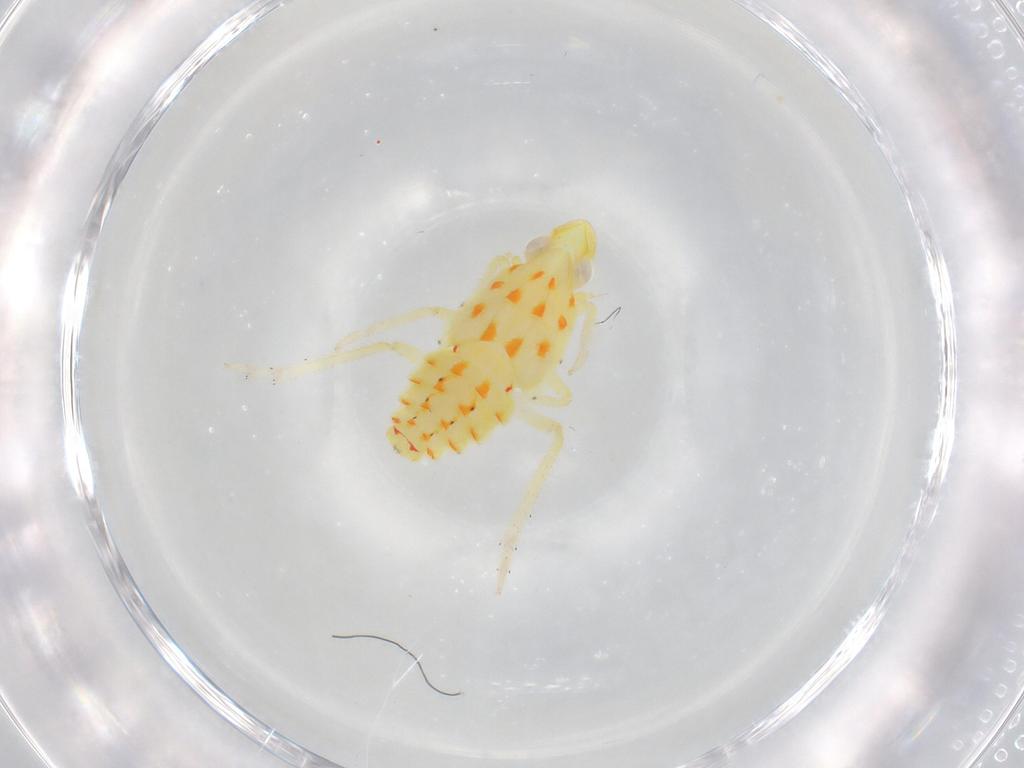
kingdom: Animalia
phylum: Arthropoda
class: Insecta
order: Hemiptera
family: Tropiduchidae
